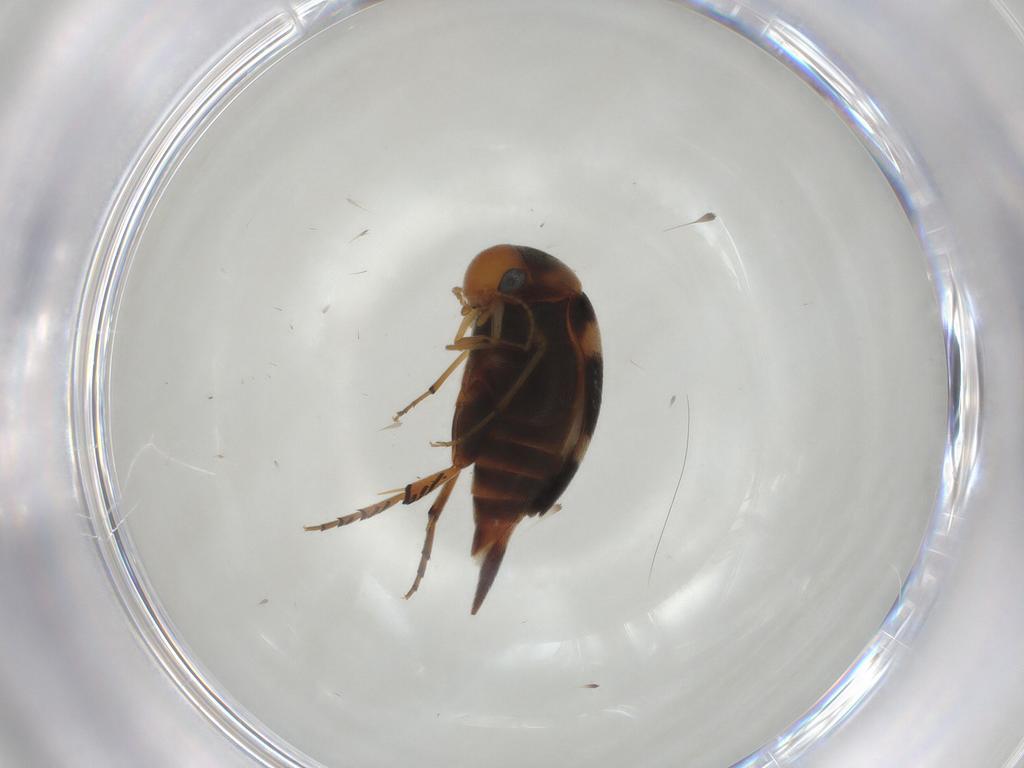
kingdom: Animalia
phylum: Arthropoda
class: Insecta
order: Coleoptera
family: Mordellidae
